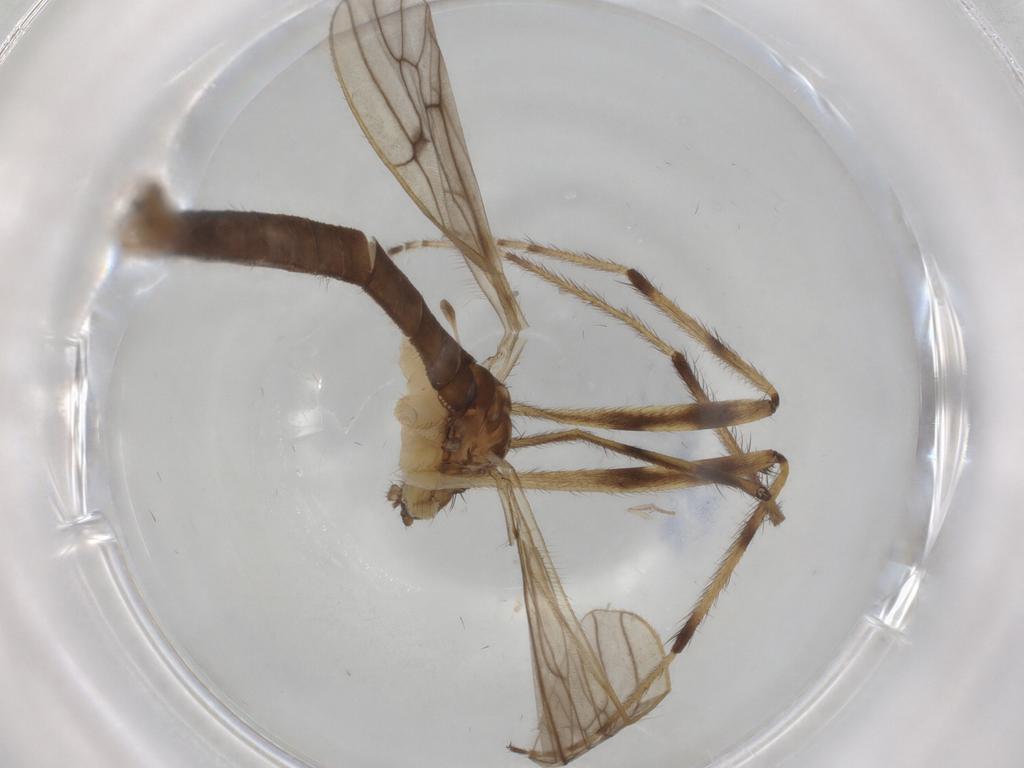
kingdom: Animalia
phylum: Arthropoda
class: Insecta
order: Diptera
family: Limoniidae
